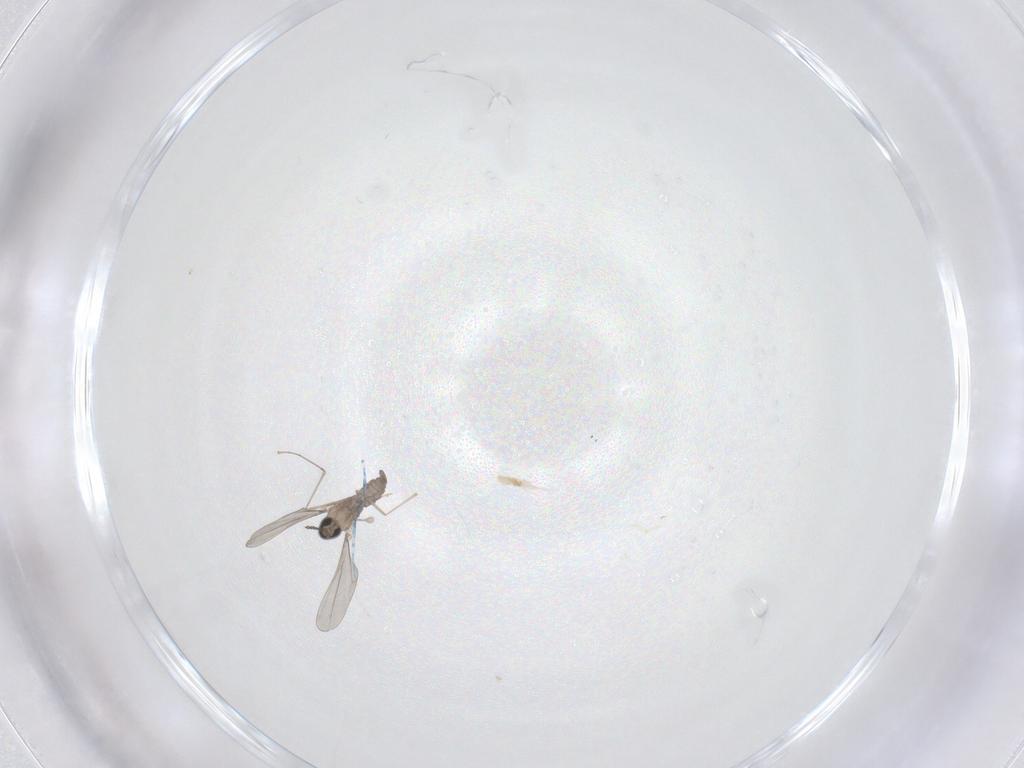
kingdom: Animalia
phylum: Arthropoda
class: Insecta
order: Diptera
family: Cecidomyiidae
